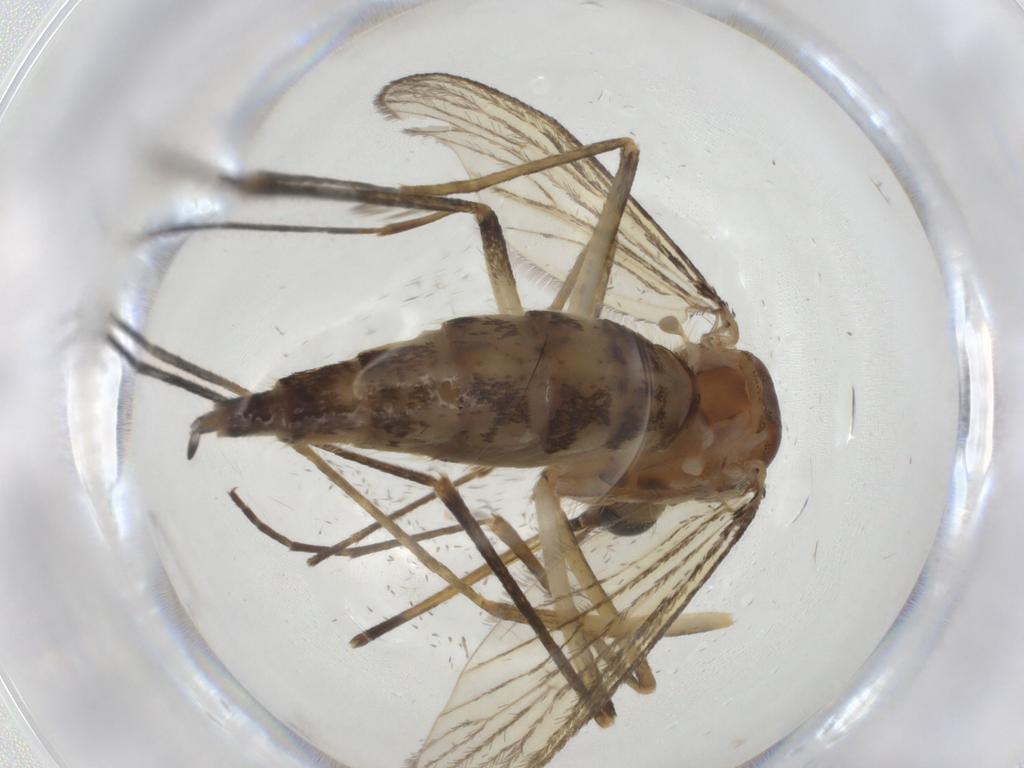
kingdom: Animalia
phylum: Arthropoda
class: Insecta
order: Diptera
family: Culicidae
